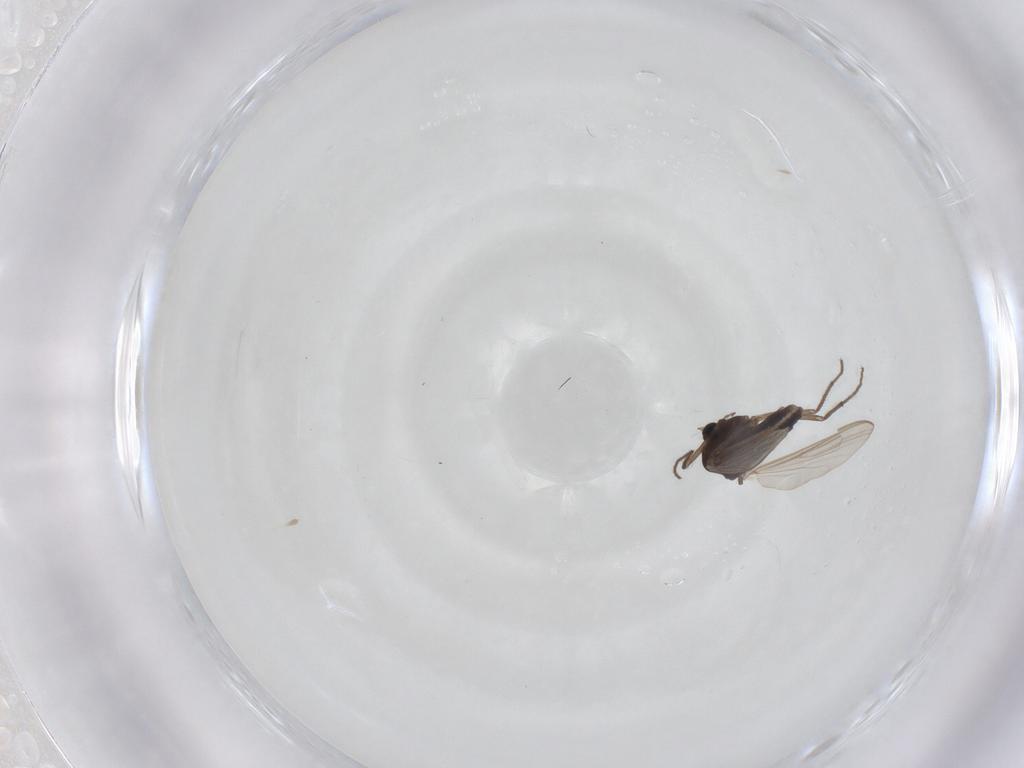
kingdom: Animalia
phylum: Arthropoda
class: Insecta
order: Diptera
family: Chironomidae
